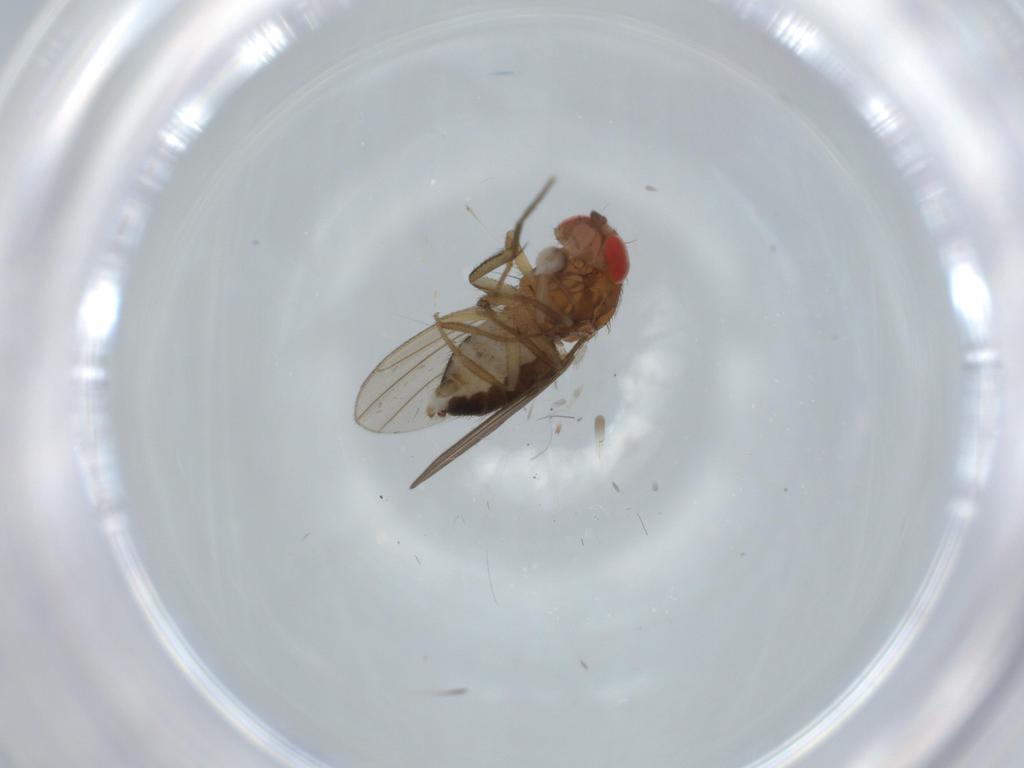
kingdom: Animalia
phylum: Arthropoda
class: Insecta
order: Diptera
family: Drosophilidae
